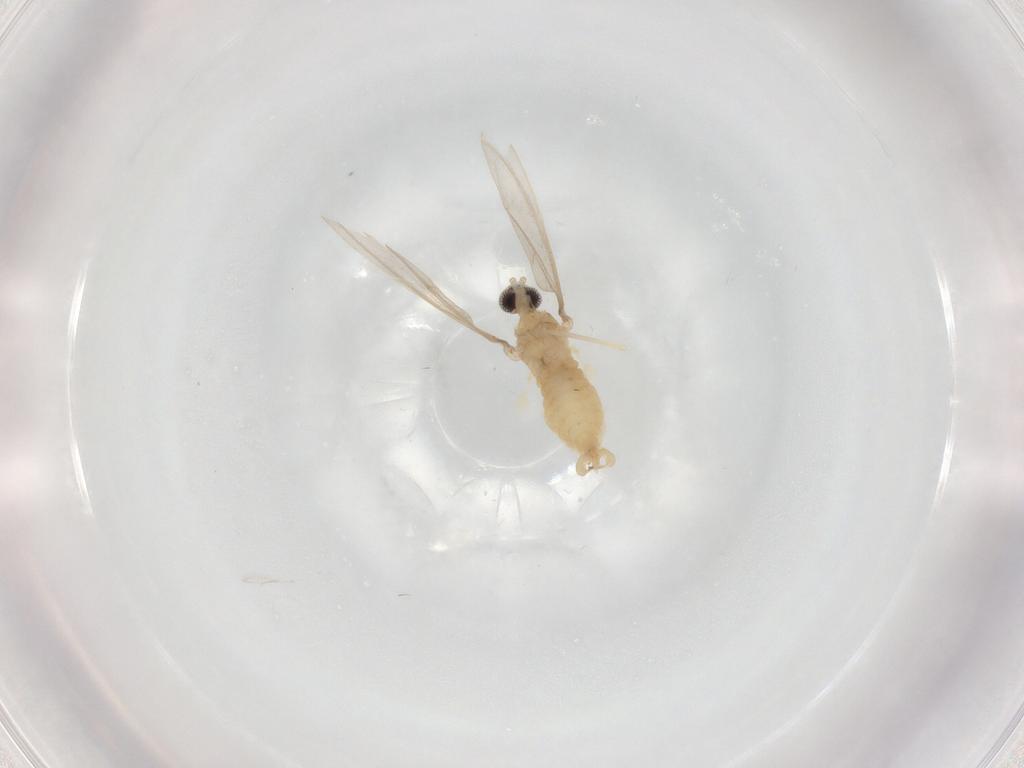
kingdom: Animalia
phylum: Arthropoda
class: Insecta
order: Diptera
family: Cecidomyiidae
